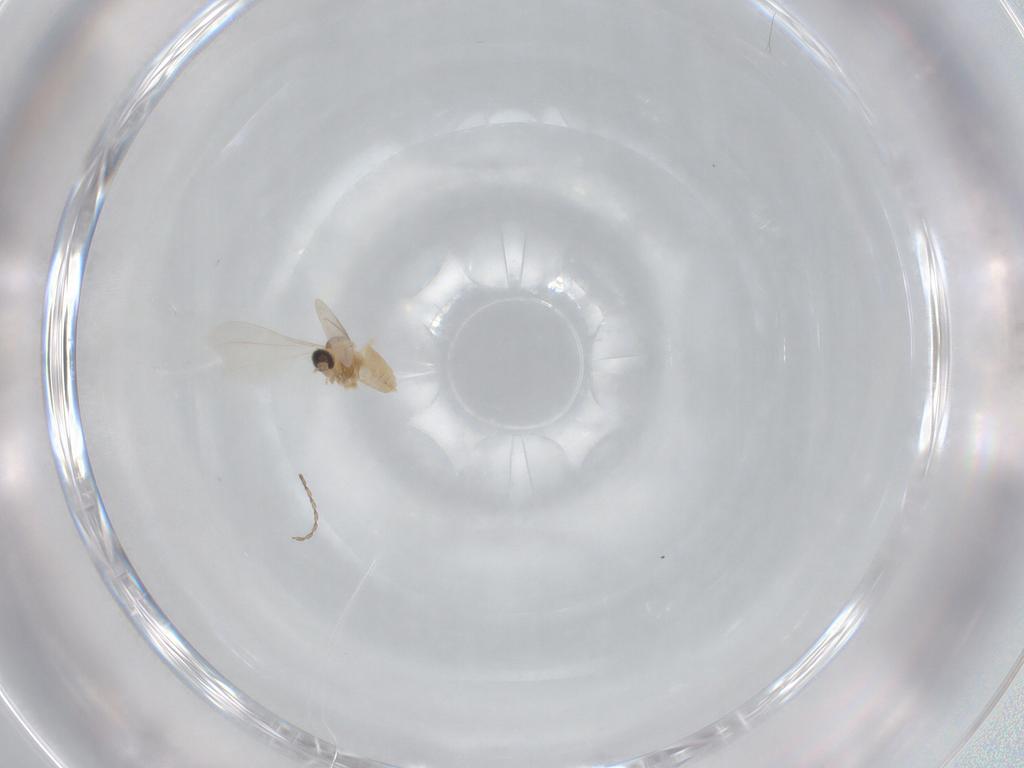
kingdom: Animalia
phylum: Arthropoda
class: Insecta
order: Diptera
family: Cecidomyiidae
